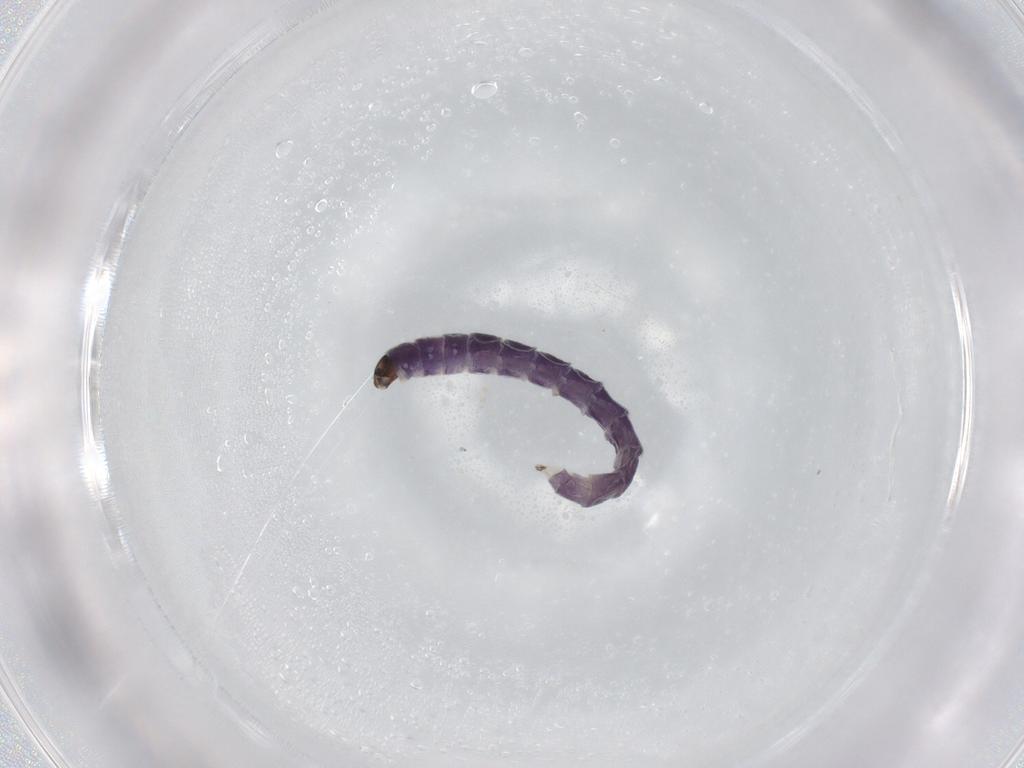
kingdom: Animalia
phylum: Arthropoda
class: Insecta
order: Diptera
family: Chironomidae
